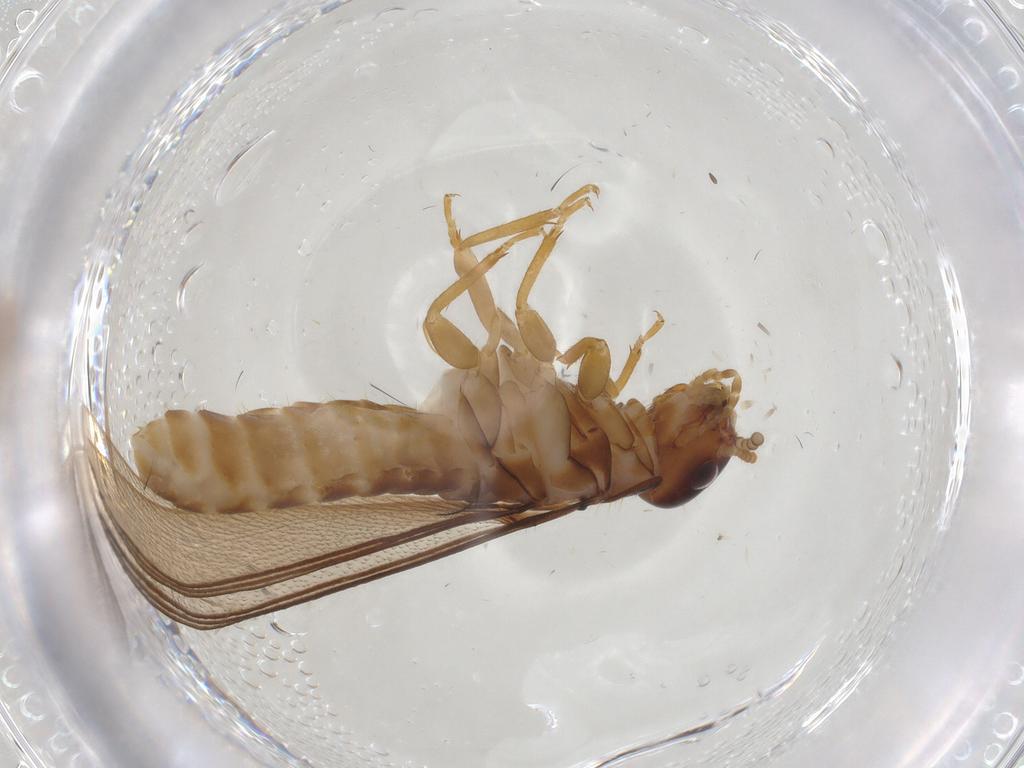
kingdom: Animalia
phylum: Arthropoda
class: Insecta
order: Blattodea
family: Kalotermitidae
